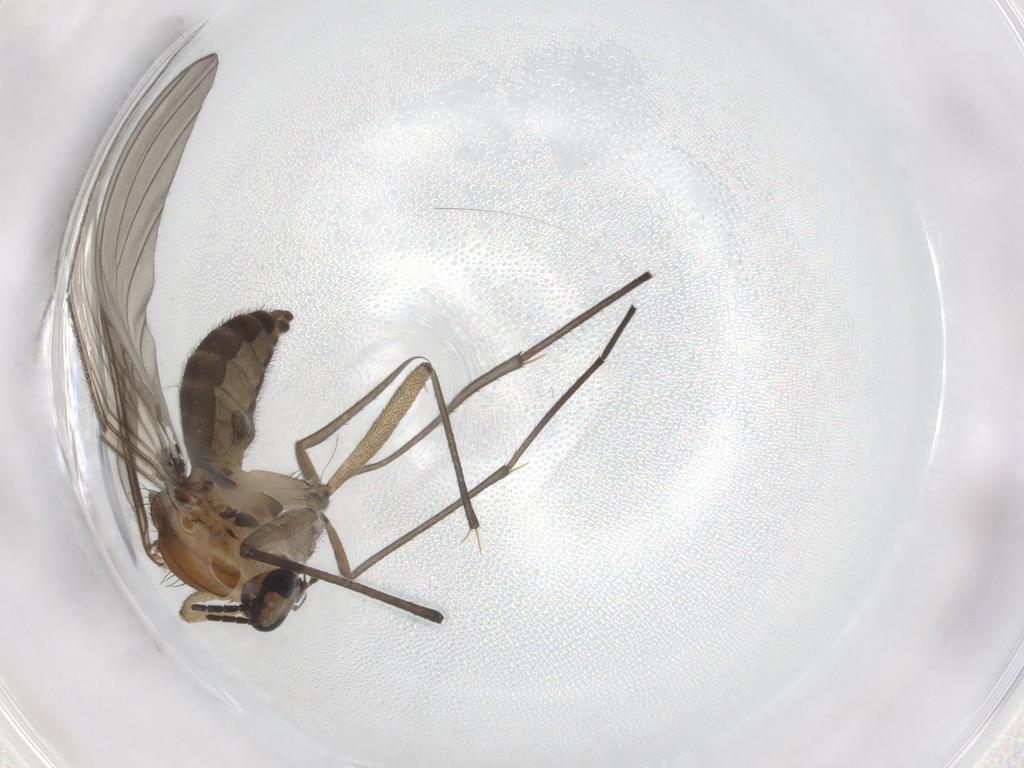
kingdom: Animalia
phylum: Arthropoda
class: Insecta
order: Diptera
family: Sciaridae
